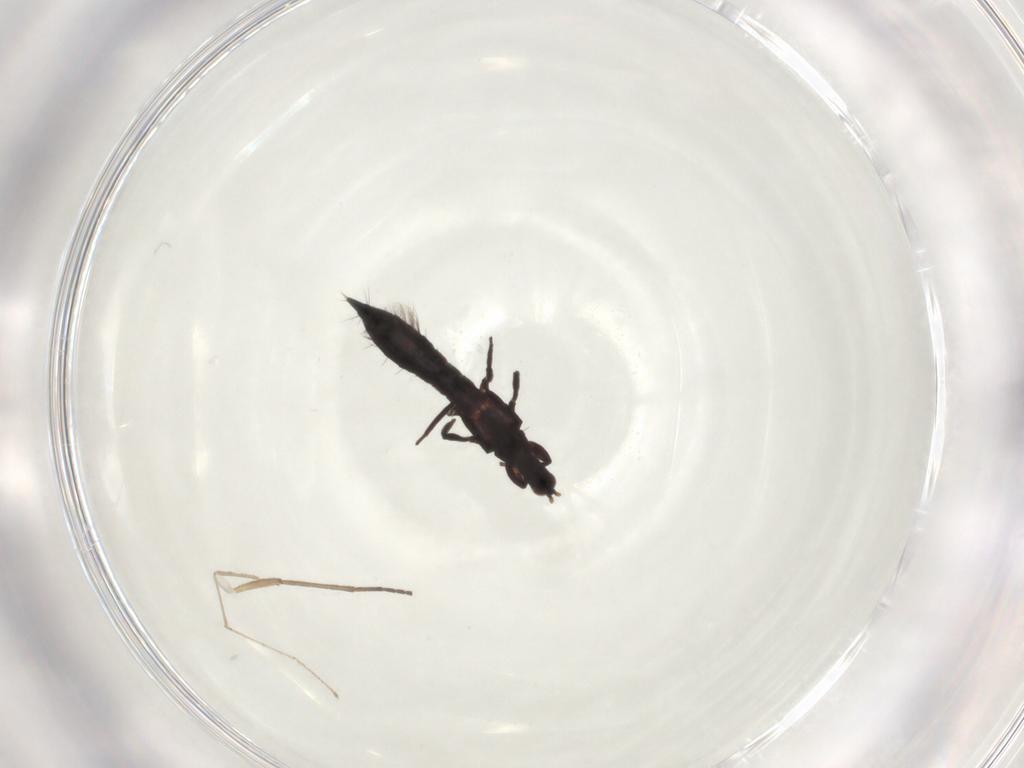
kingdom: Animalia
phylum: Arthropoda
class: Insecta
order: Thysanoptera
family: Phlaeothripidae
